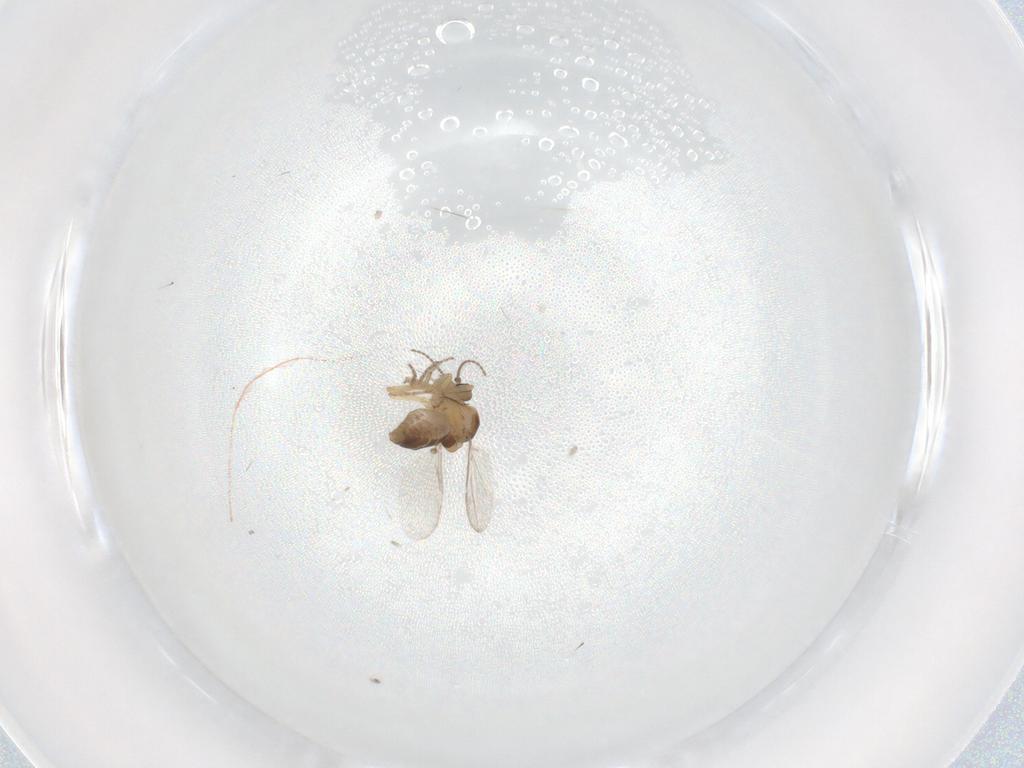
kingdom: Animalia
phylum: Arthropoda
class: Insecta
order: Diptera
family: Ceratopogonidae
